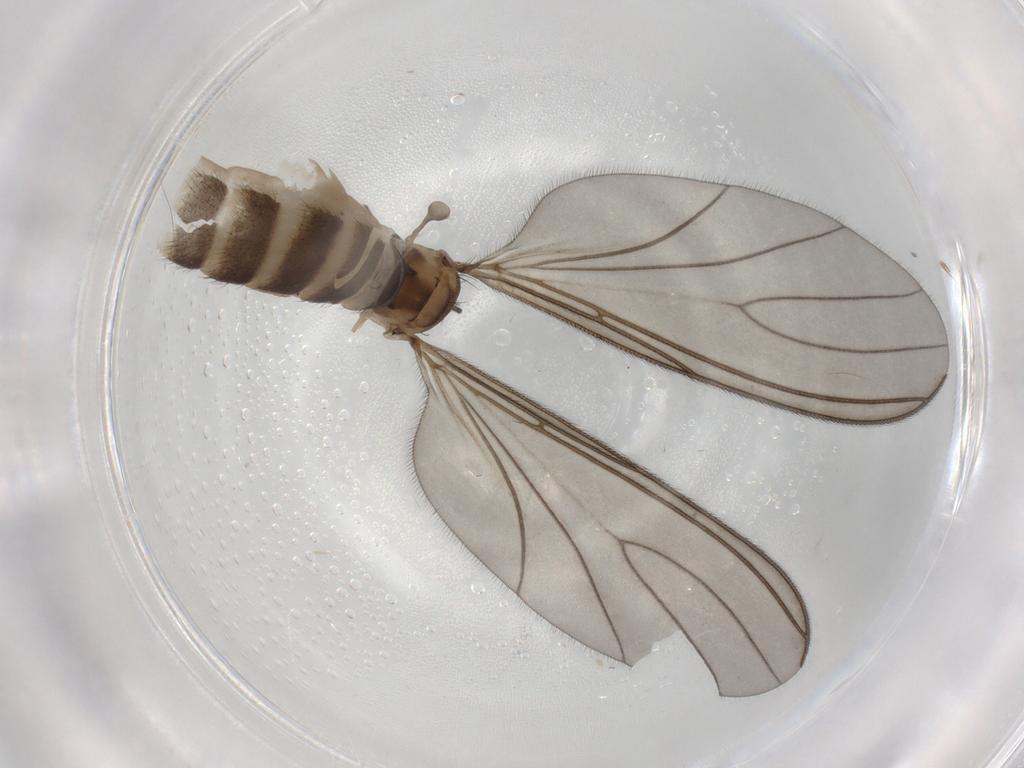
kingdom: Animalia
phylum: Arthropoda
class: Insecta
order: Diptera
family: Sciaridae
